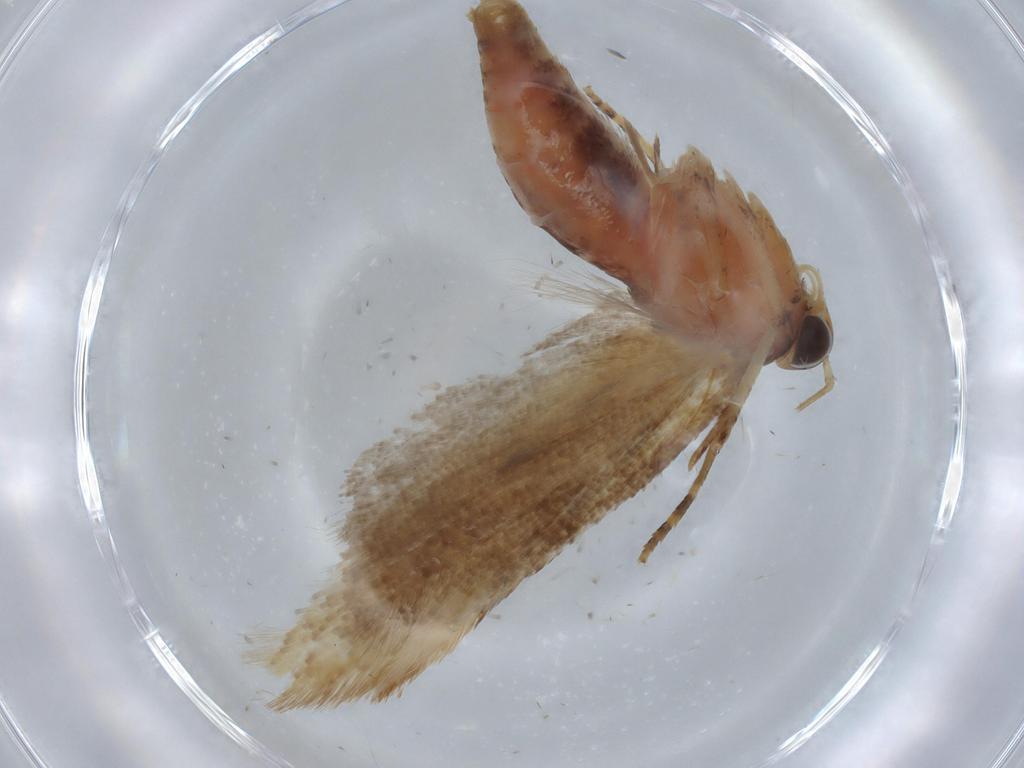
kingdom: Animalia
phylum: Arthropoda
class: Insecta
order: Lepidoptera
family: Gelechiidae
